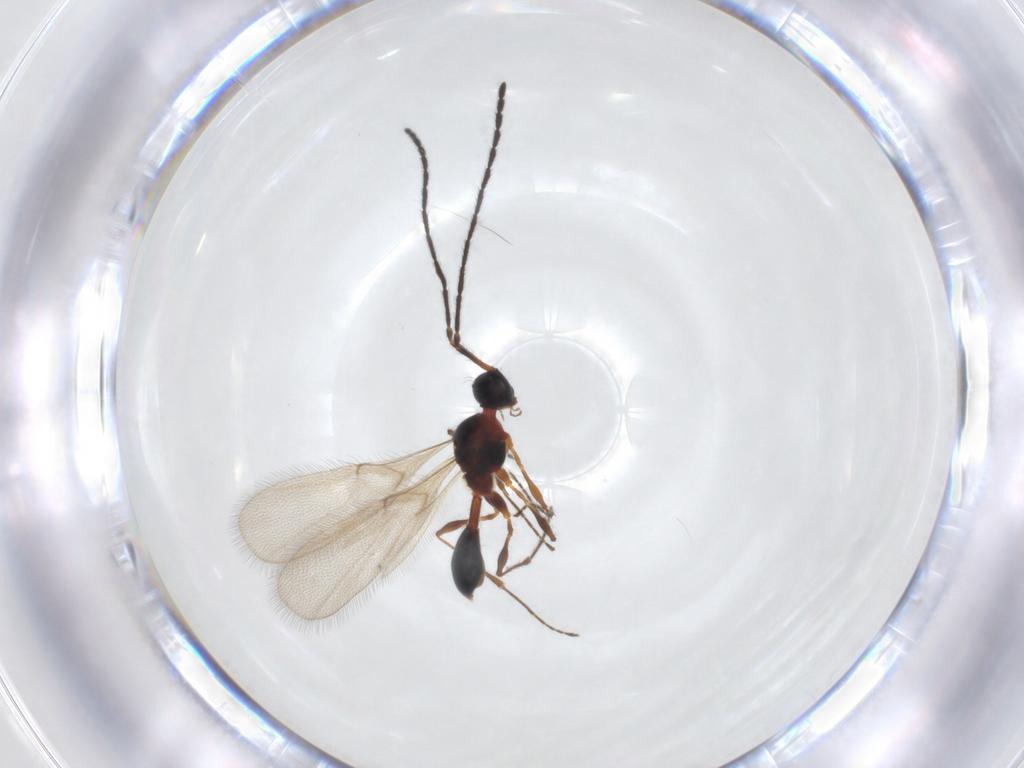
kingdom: Animalia
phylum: Arthropoda
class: Insecta
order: Hymenoptera
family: Diapriidae
